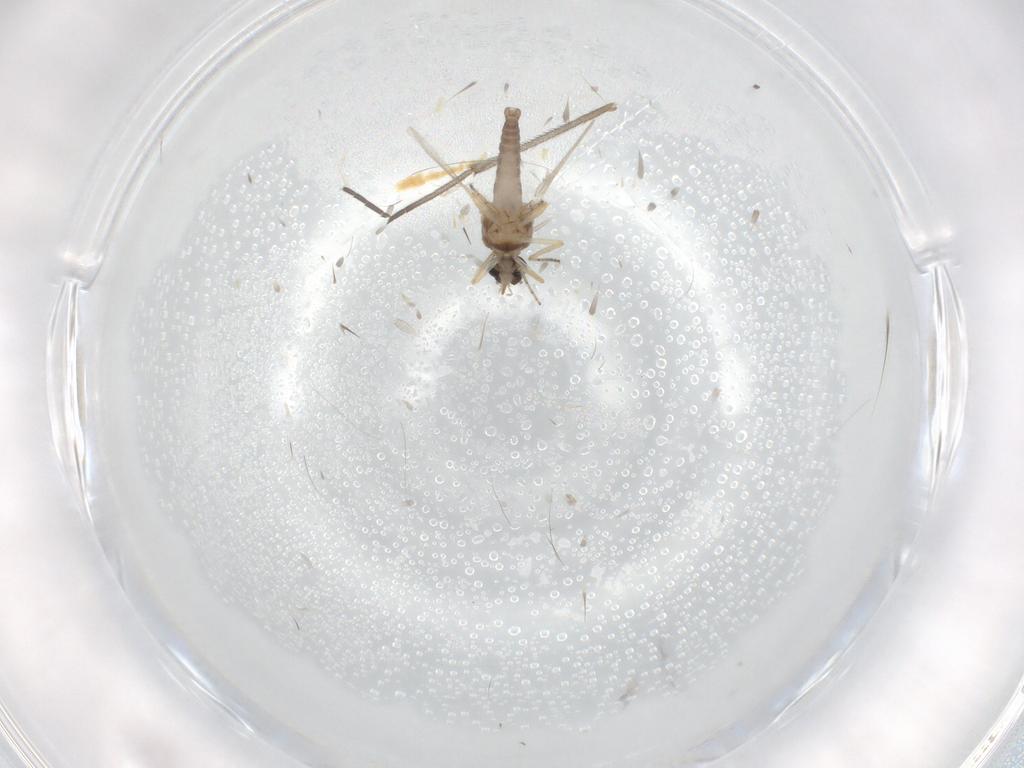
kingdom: Animalia
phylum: Arthropoda
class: Insecta
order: Diptera
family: Ceratopogonidae
